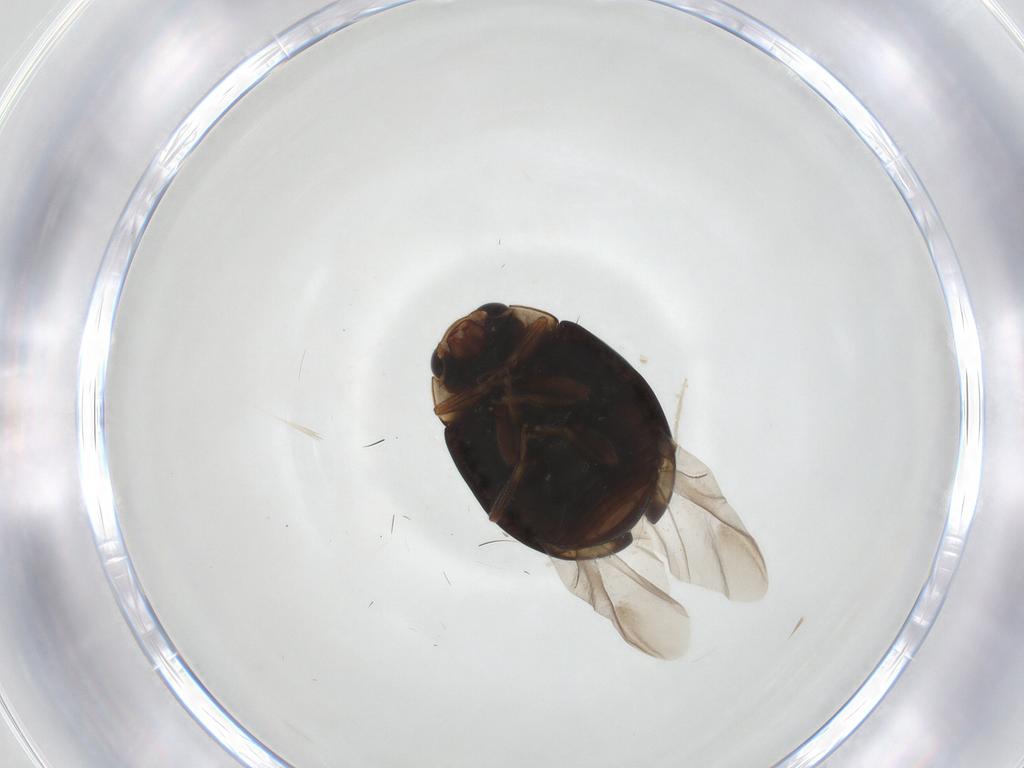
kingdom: Animalia
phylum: Arthropoda
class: Insecta
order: Coleoptera
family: Coccinellidae
